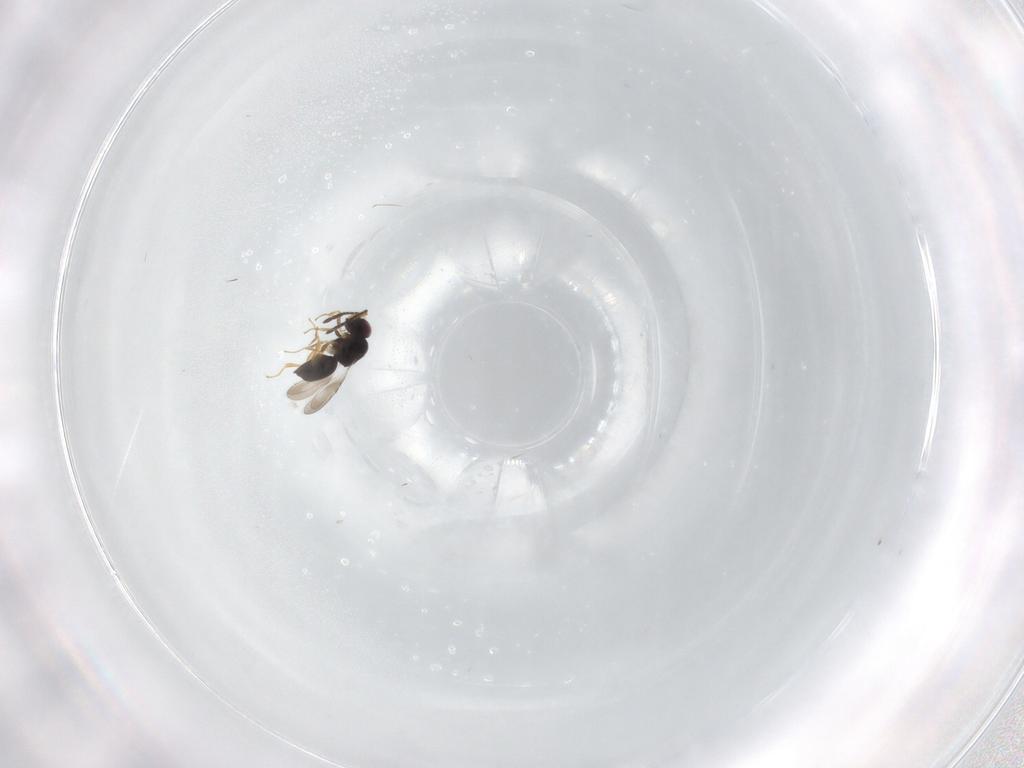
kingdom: Animalia
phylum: Arthropoda
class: Insecta
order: Hymenoptera
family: Bethylidae
